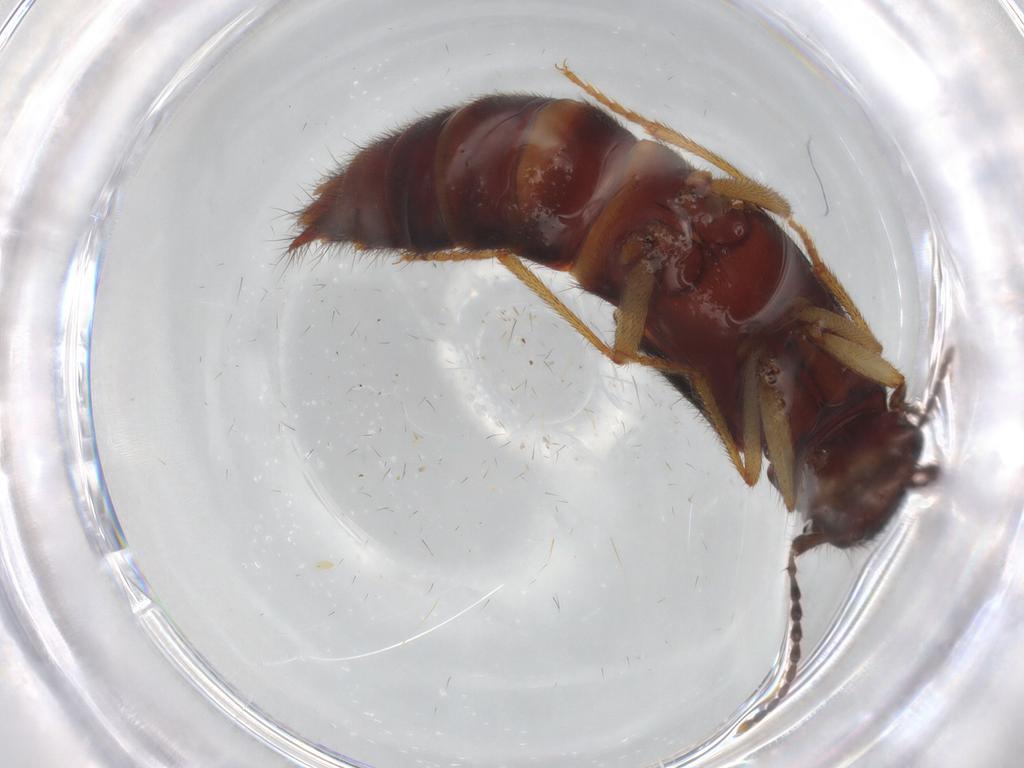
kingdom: Animalia
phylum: Arthropoda
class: Insecta
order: Coleoptera
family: Staphylinidae
